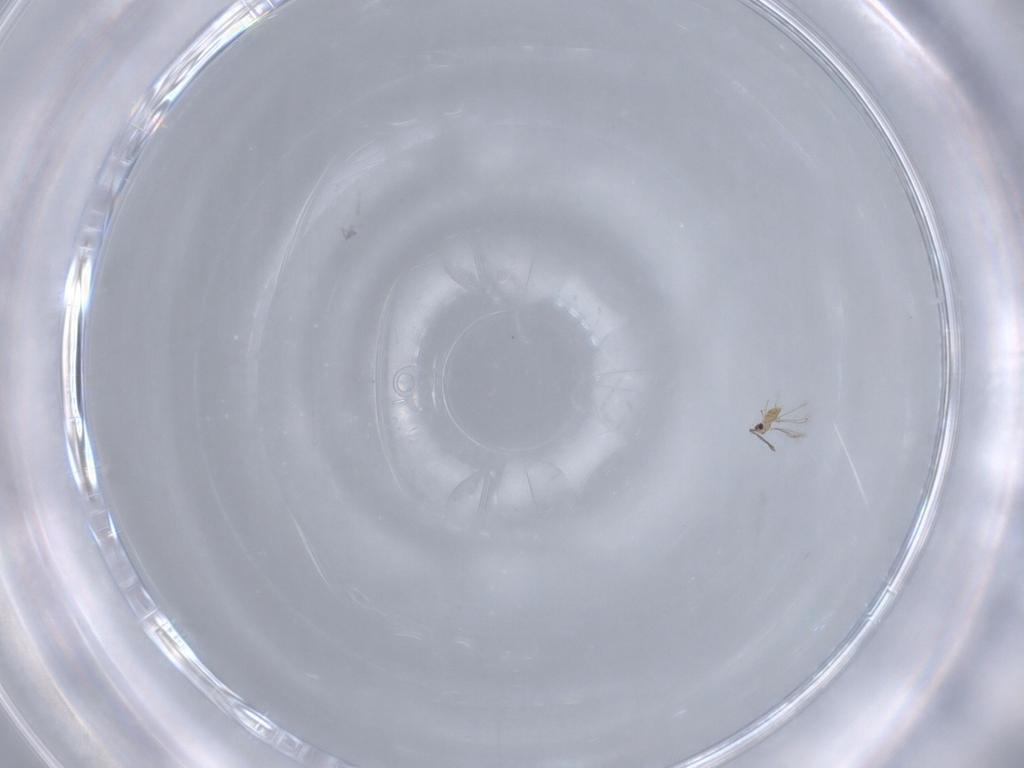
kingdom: Animalia
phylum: Arthropoda
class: Insecta
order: Hymenoptera
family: Mymaridae
